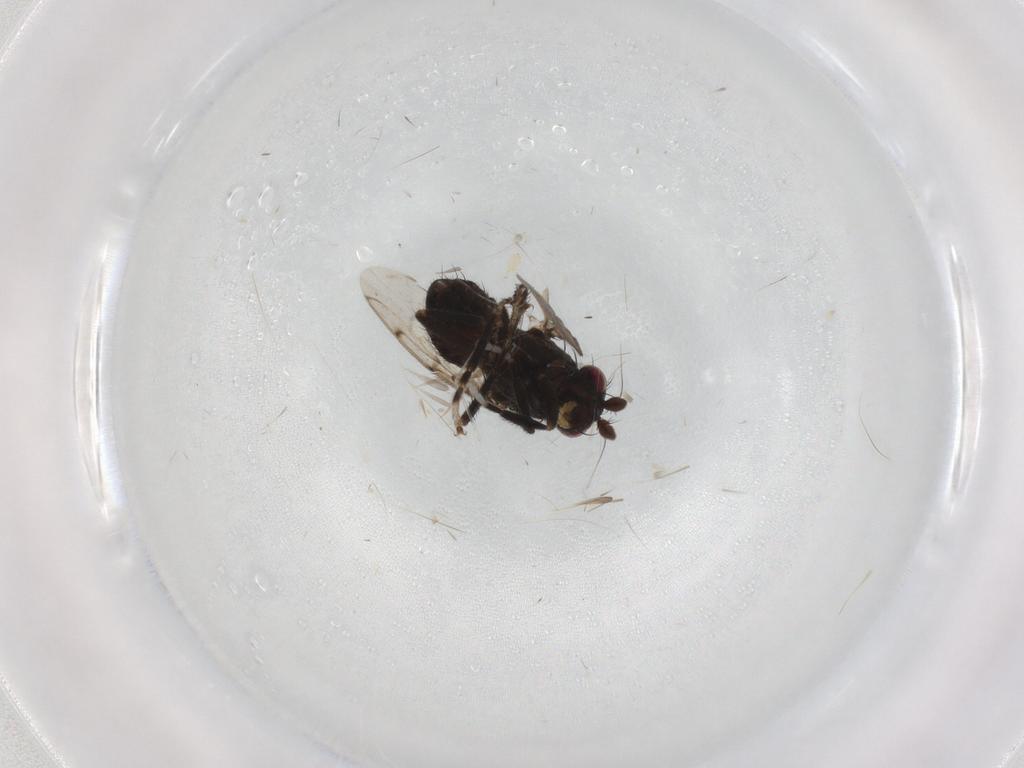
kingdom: Animalia
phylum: Arthropoda
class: Insecta
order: Diptera
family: Sphaeroceridae
